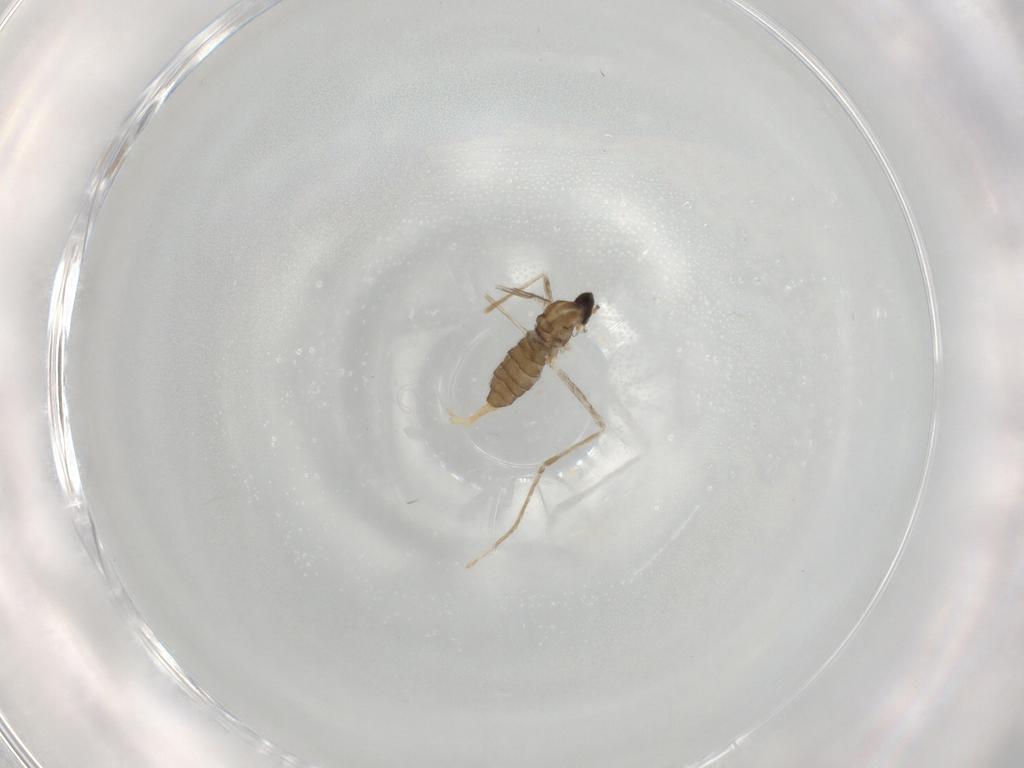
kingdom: Animalia
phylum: Arthropoda
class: Insecta
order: Diptera
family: Cecidomyiidae
